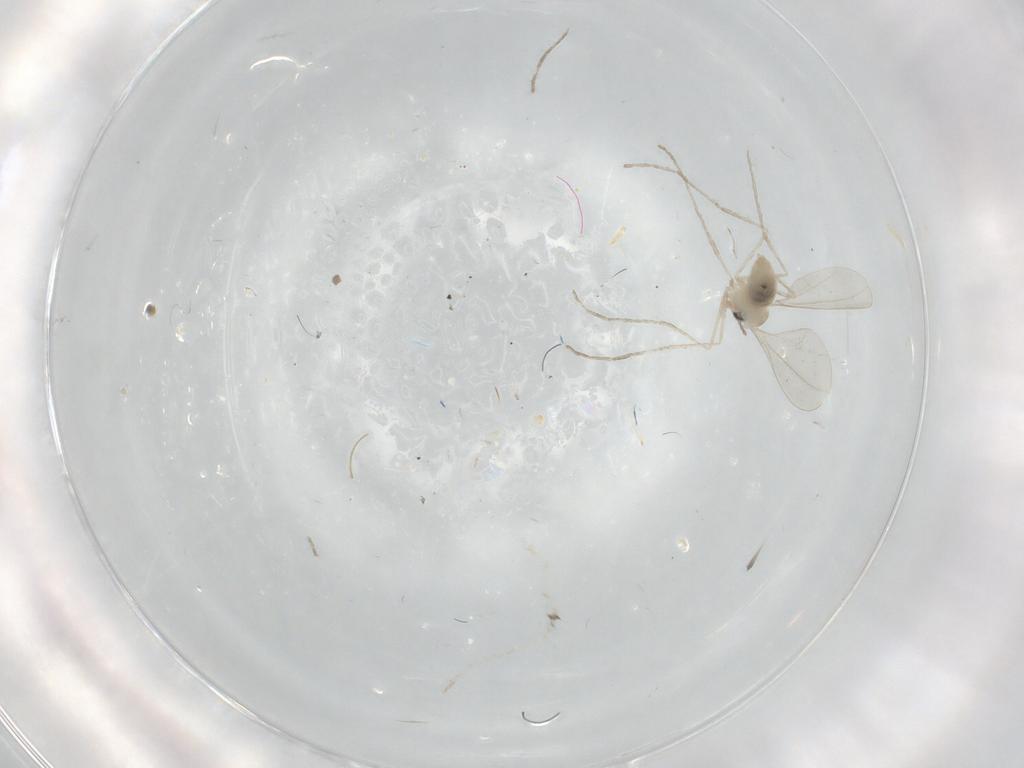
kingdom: Animalia
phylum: Arthropoda
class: Insecta
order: Diptera
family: Cecidomyiidae
